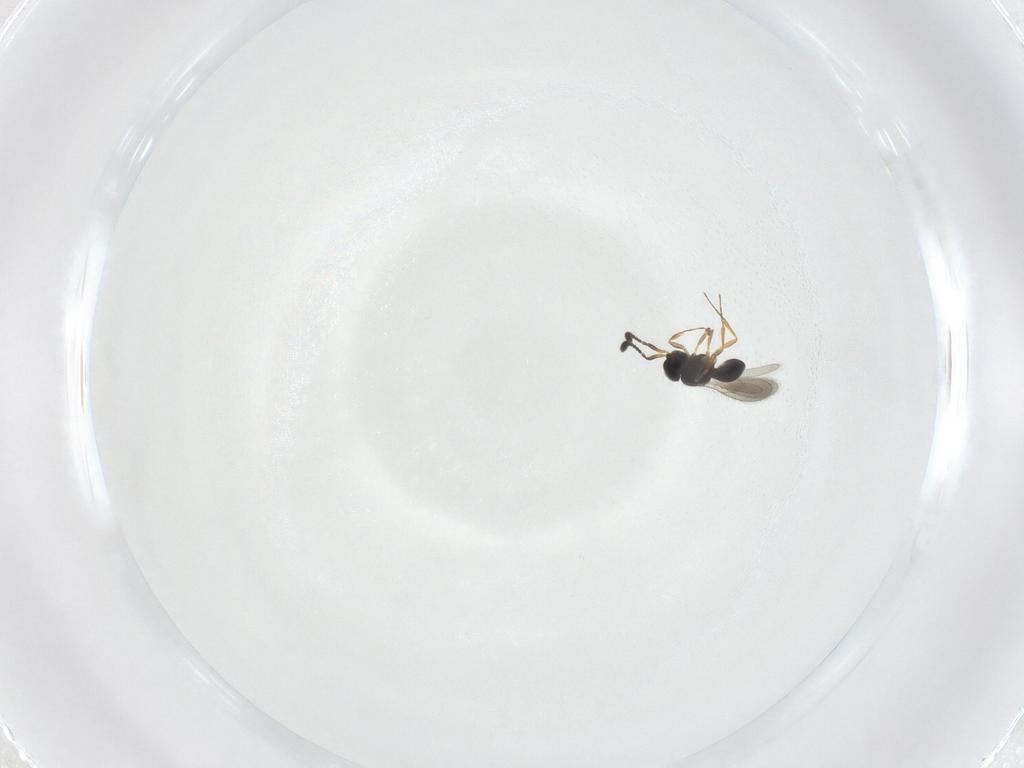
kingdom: Animalia
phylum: Arthropoda
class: Insecta
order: Hymenoptera
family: Scelionidae
